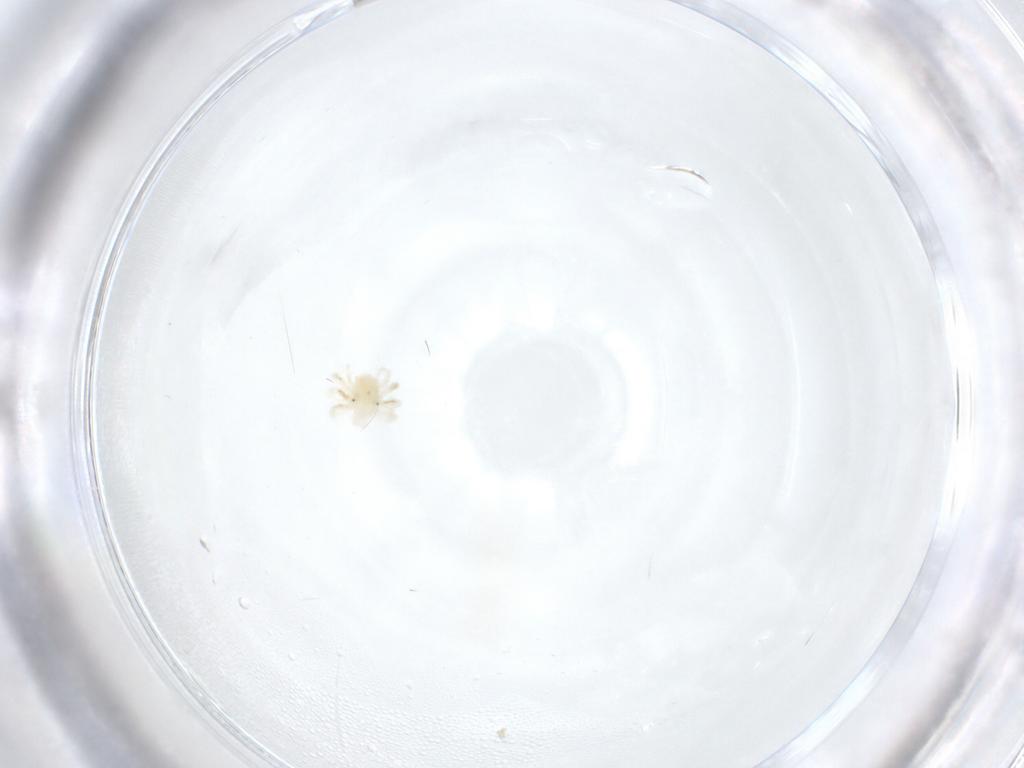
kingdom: Animalia
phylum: Arthropoda
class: Arachnida
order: Trombidiformes
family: Anystidae
